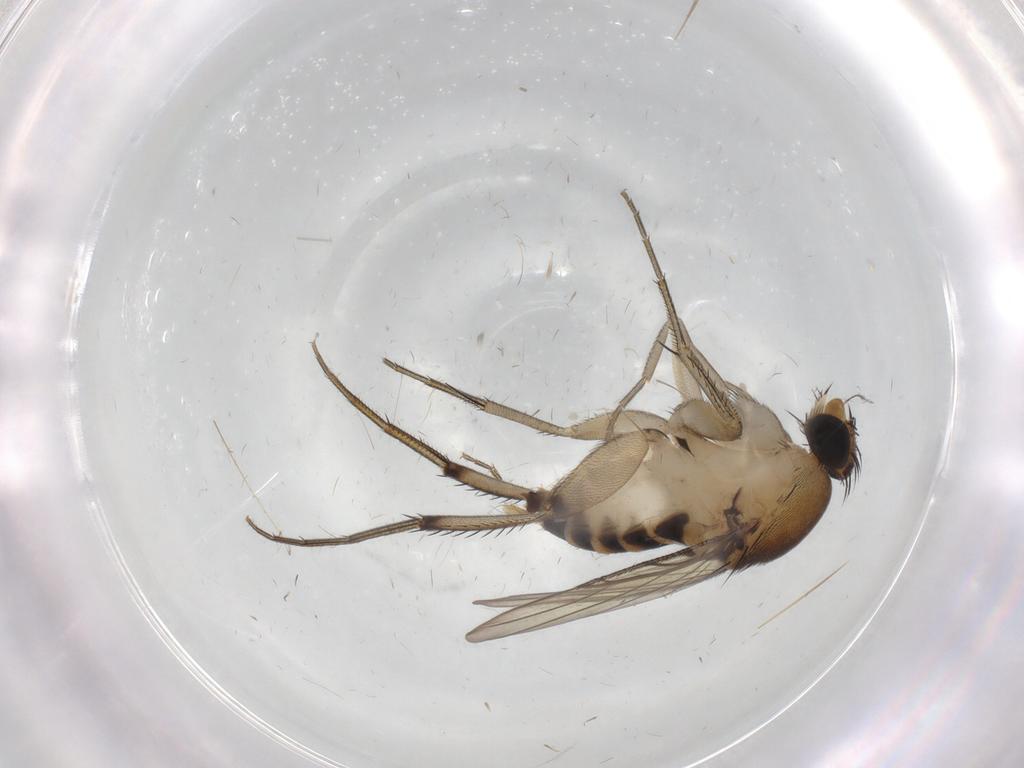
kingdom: Animalia
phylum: Arthropoda
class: Insecta
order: Diptera
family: Phoridae
